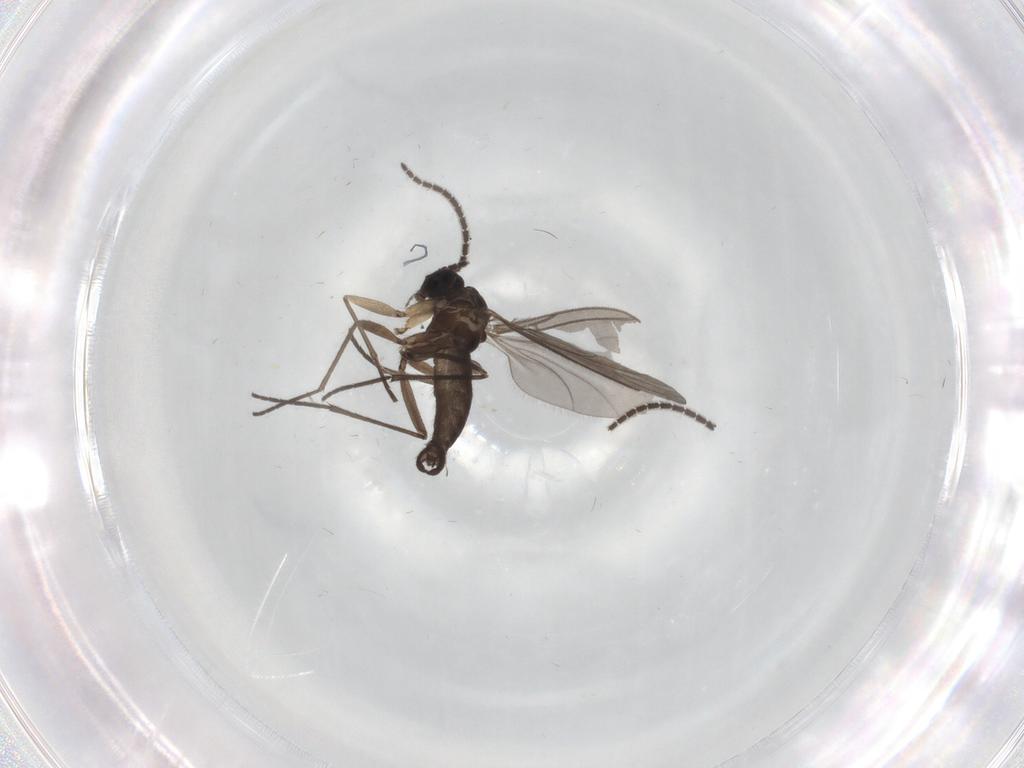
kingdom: Animalia
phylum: Arthropoda
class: Insecta
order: Diptera
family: Sciaridae
